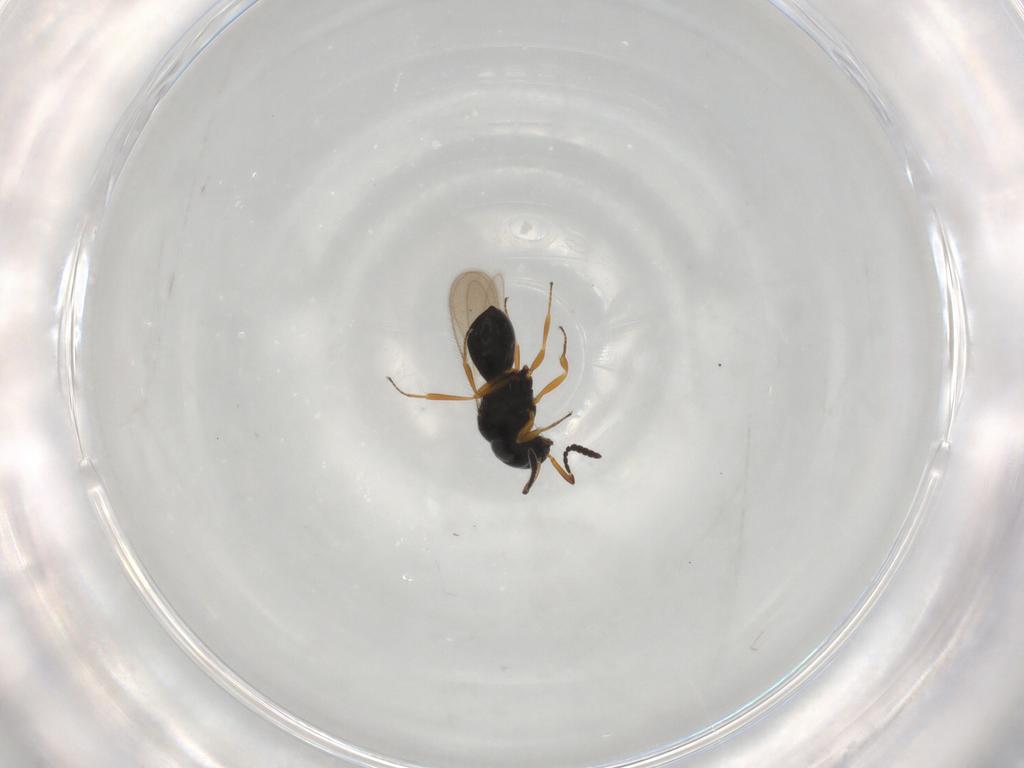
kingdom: Animalia
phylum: Arthropoda
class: Insecta
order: Hymenoptera
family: Scelionidae
